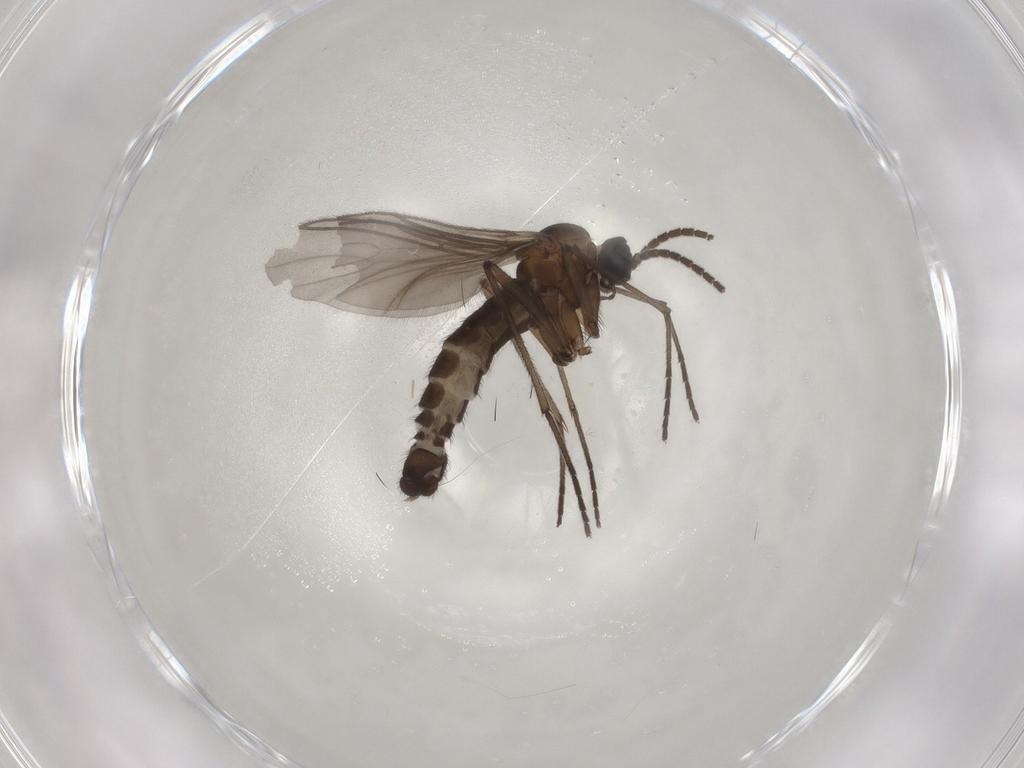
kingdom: Animalia
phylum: Arthropoda
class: Insecta
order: Diptera
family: Sciaridae
